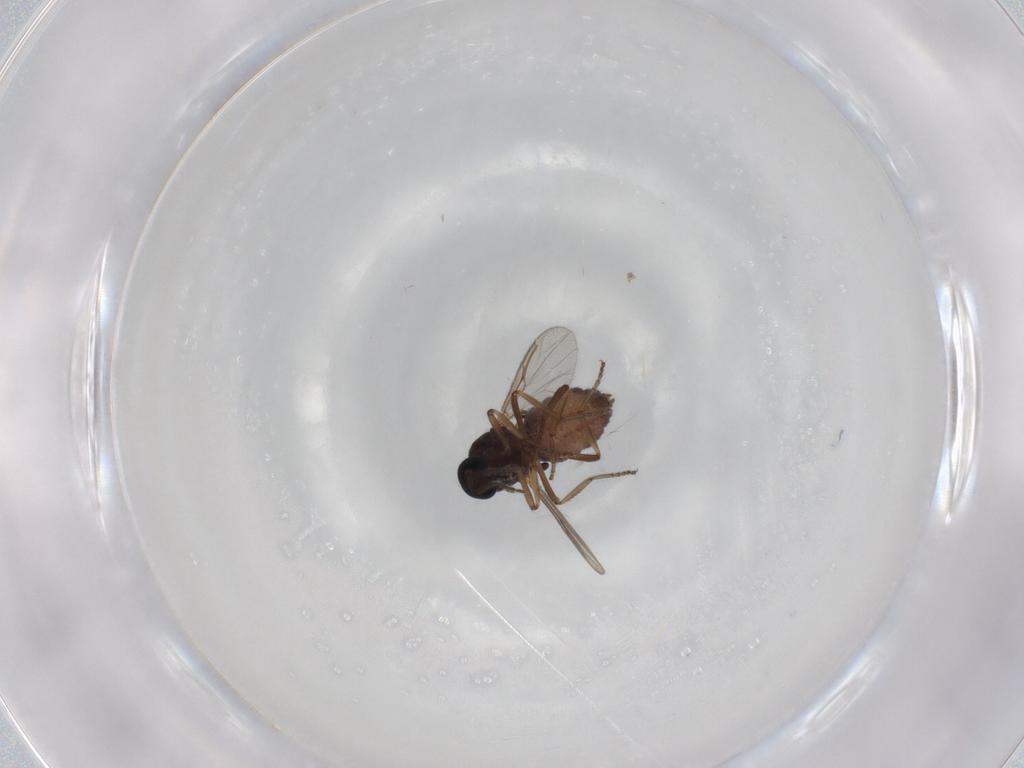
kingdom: Animalia
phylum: Arthropoda
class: Insecta
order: Diptera
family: Ceratopogonidae
